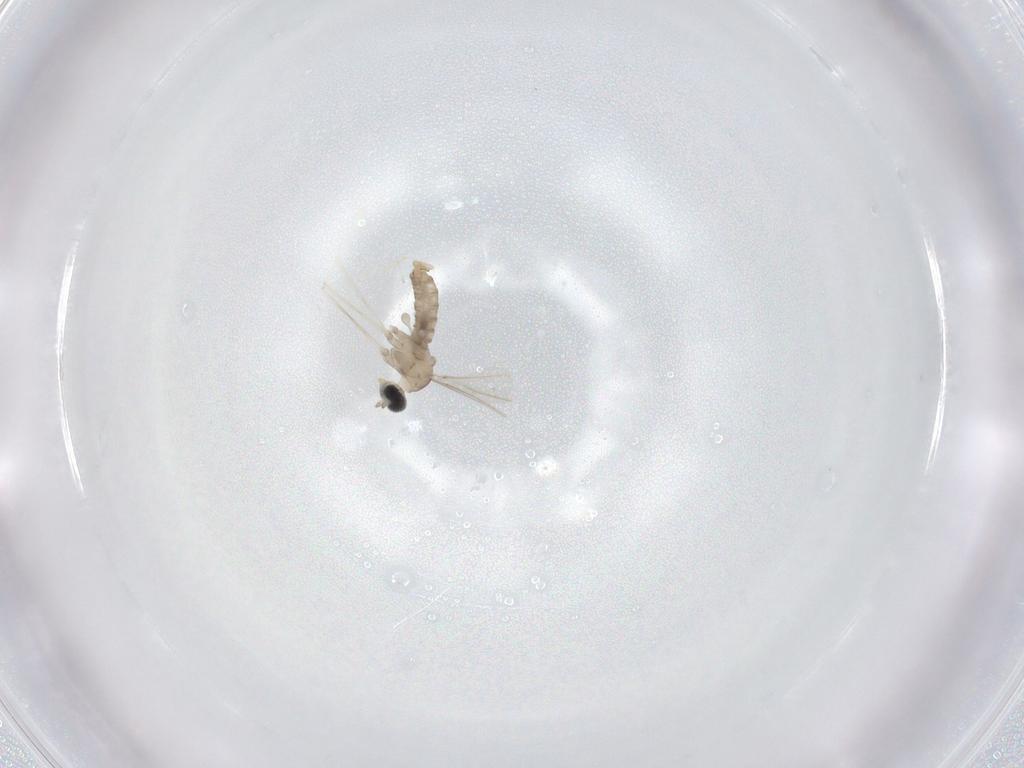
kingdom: Animalia
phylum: Arthropoda
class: Insecta
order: Diptera
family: Cecidomyiidae
